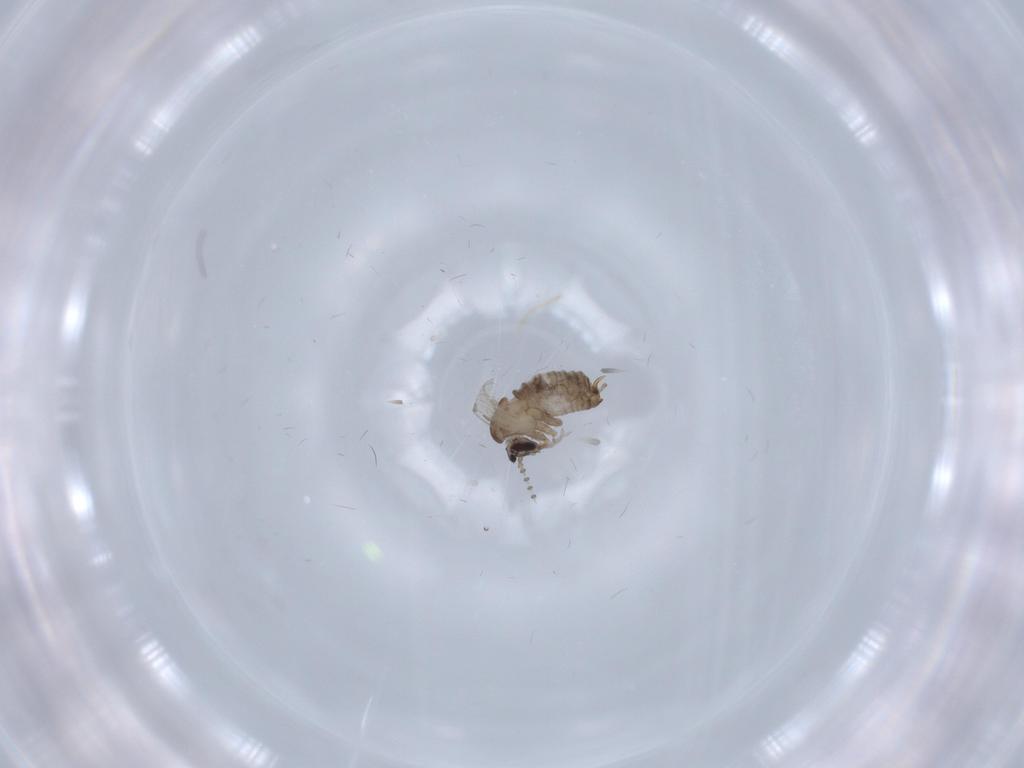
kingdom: Animalia
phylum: Arthropoda
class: Insecta
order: Diptera
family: Psychodidae
